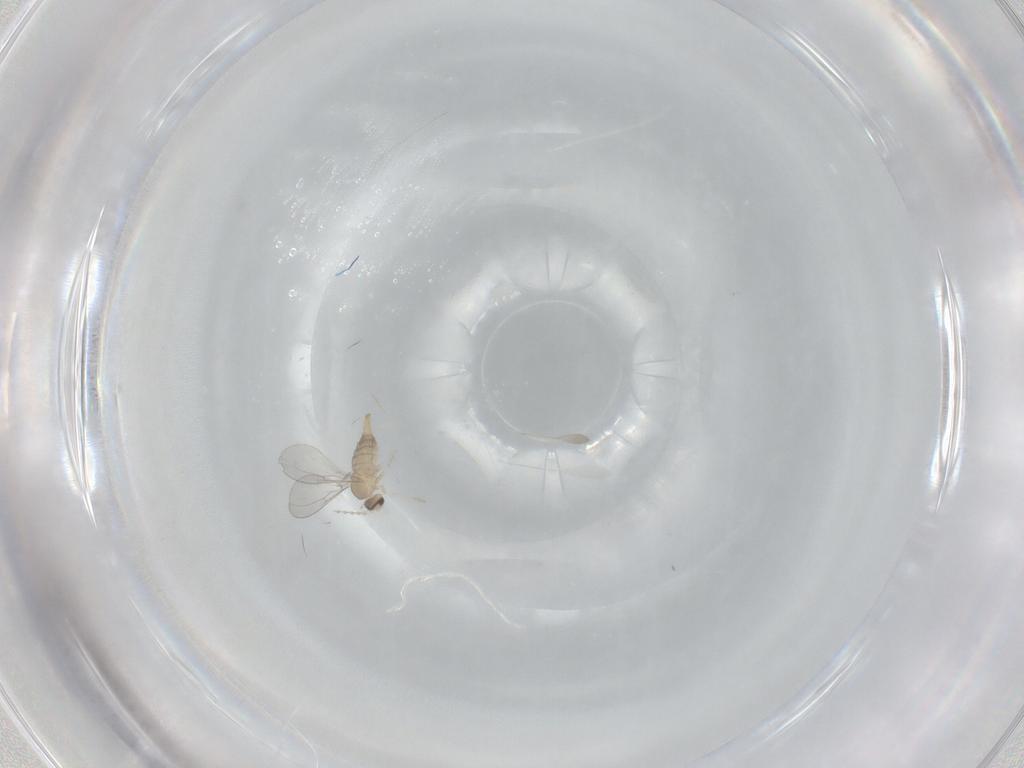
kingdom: Animalia
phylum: Arthropoda
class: Insecta
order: Diptera
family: Cecidomyiidae
